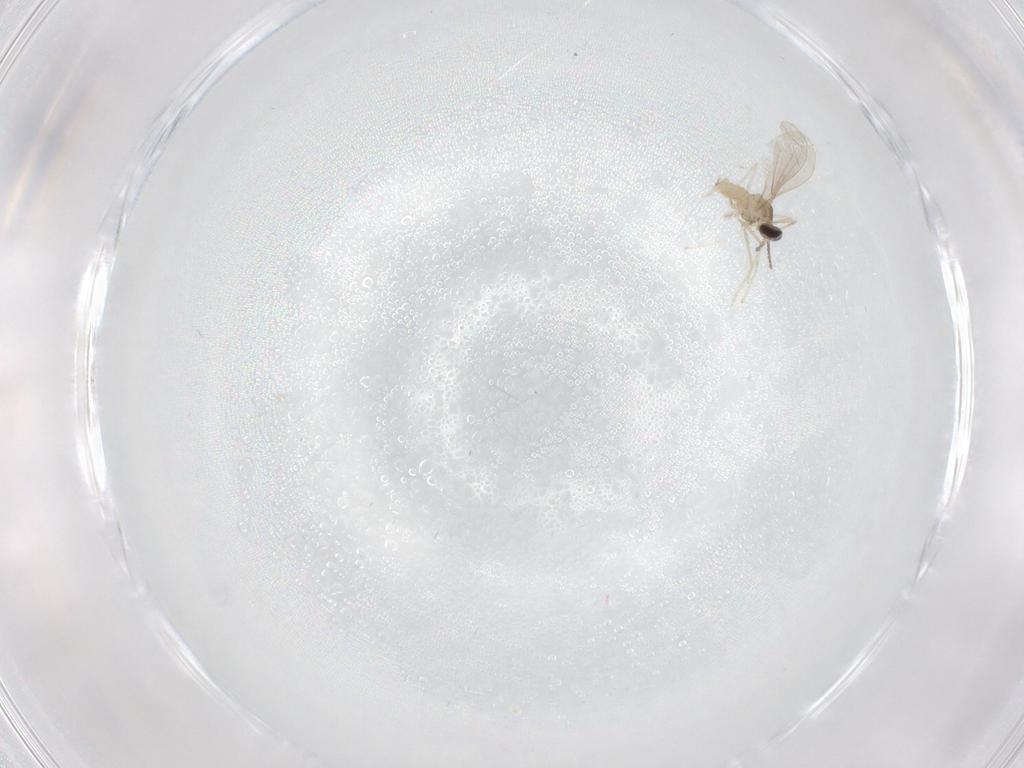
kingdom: Animalia
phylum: Arthropoda
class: Insecta
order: Diptera
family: Cecidomyiidae
